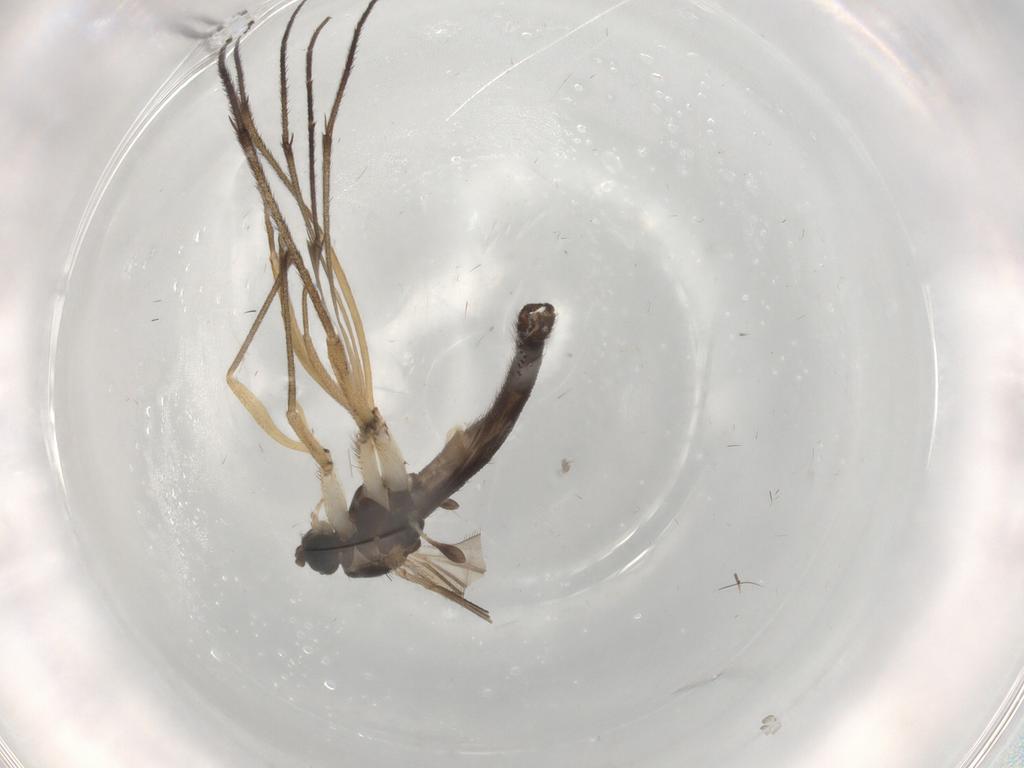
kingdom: Animalia
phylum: Arthropoda
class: Insecta
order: Diptera
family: Sciaridae
